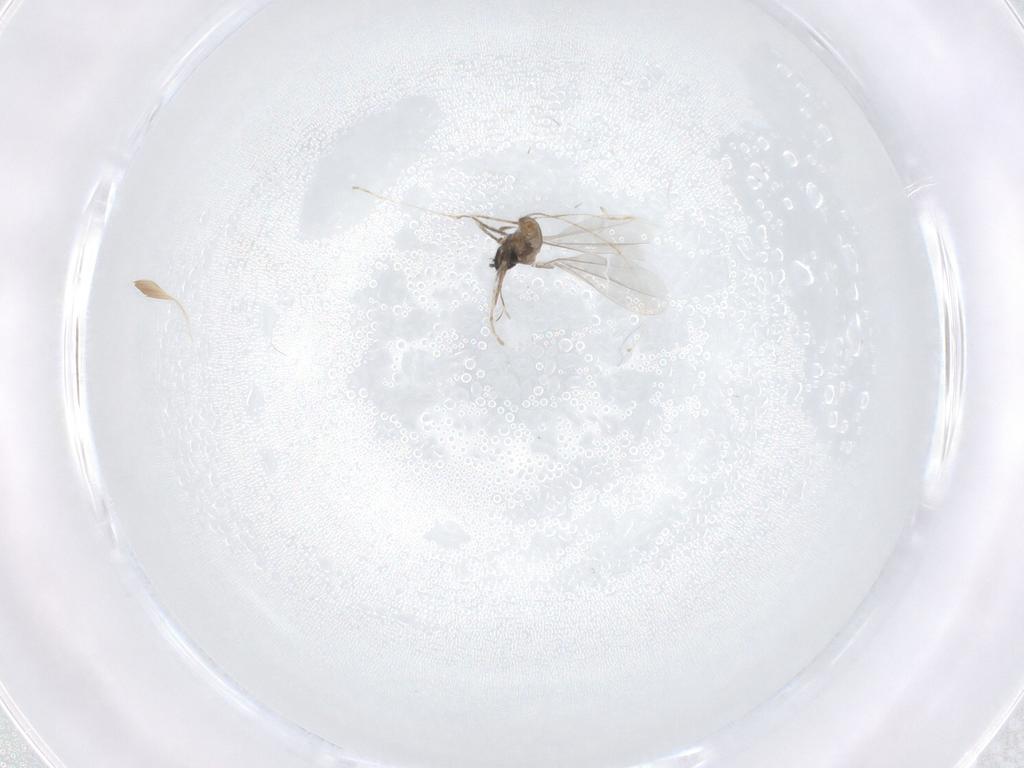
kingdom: Animalia
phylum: Arthropoda
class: Insecta
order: Diptera
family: Cecidomyiidae
